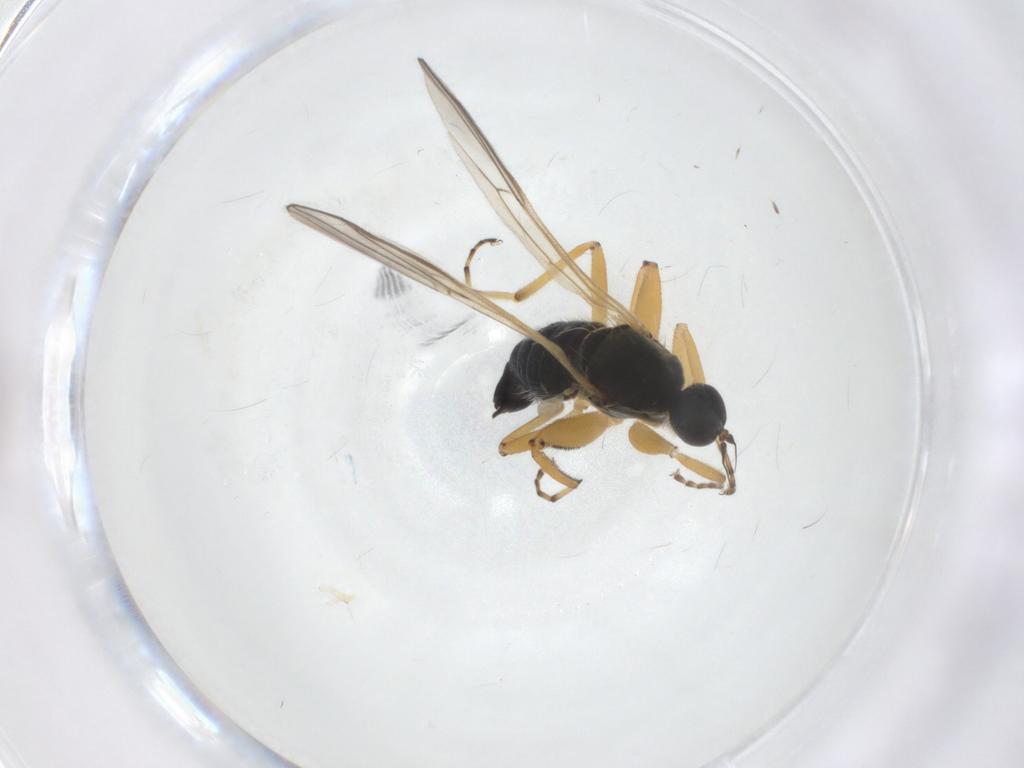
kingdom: Animalia
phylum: Arthropoda
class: Insecta
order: Diptera
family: Hybotidae
